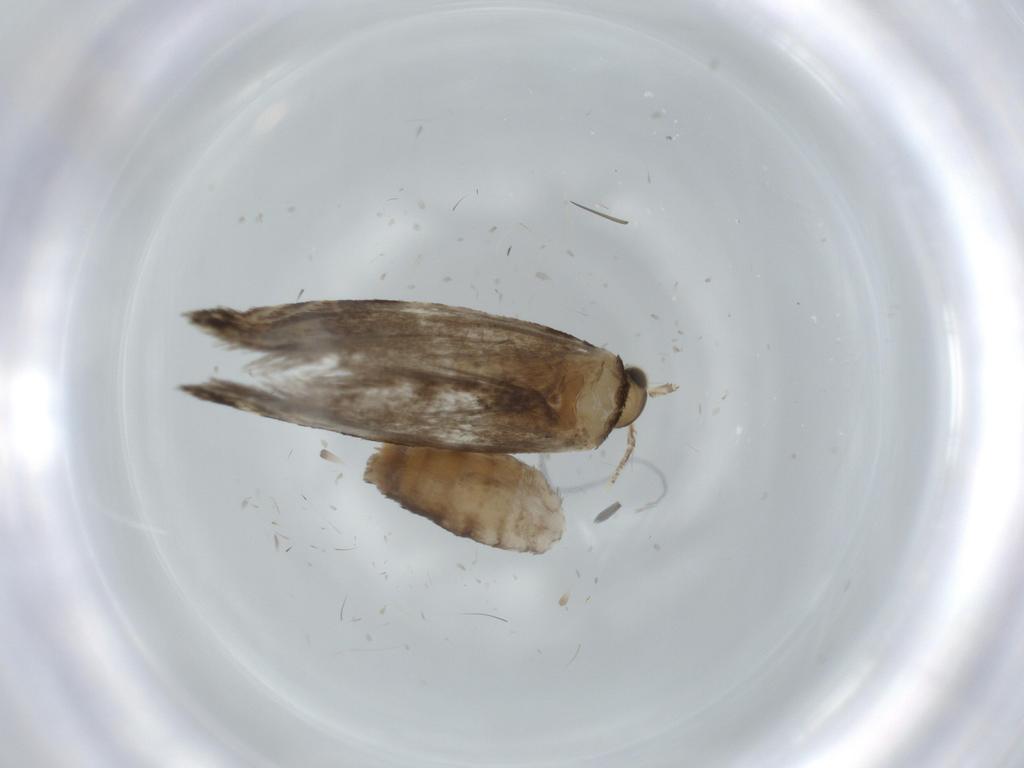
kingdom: Animalia
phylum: Arthropoda
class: Insecta
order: Lepidoptera
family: Tineidae
